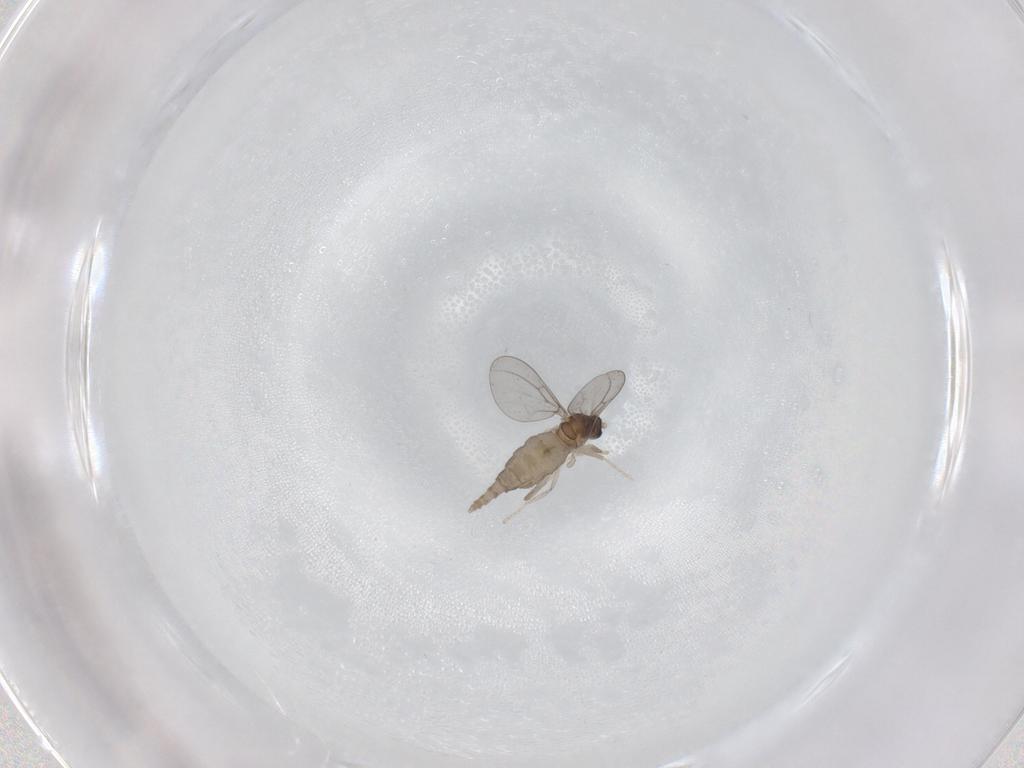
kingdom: Animalia
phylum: Arthropoda
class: Insecta
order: Diptera
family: Cecidomyiidae
